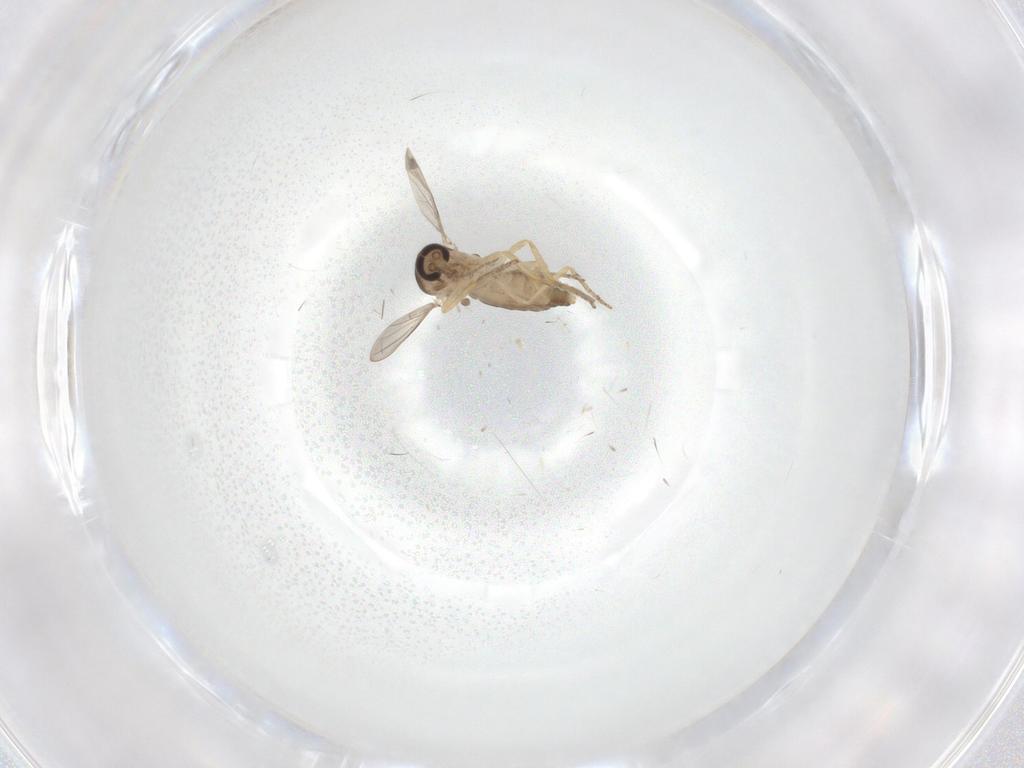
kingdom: Animalia
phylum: Arthropoda
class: Insecta
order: Diptera
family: Ceratopogonidae
